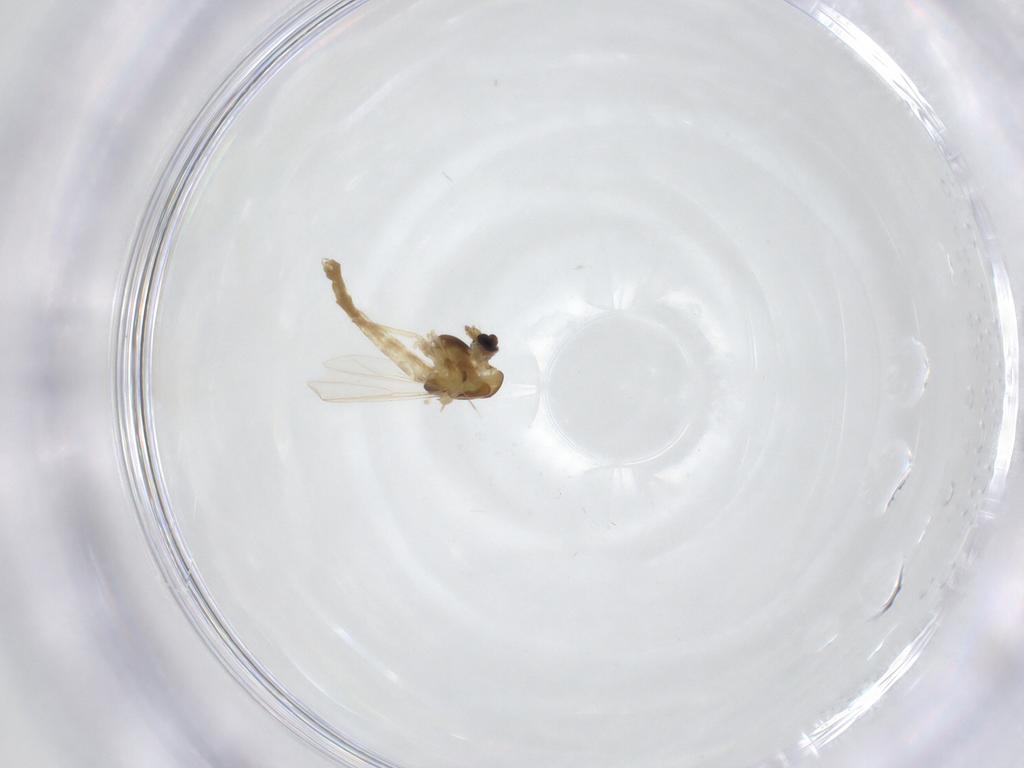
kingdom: Animalia
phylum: Arthropoda
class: Insecta
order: Diptera
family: Chironomidae
